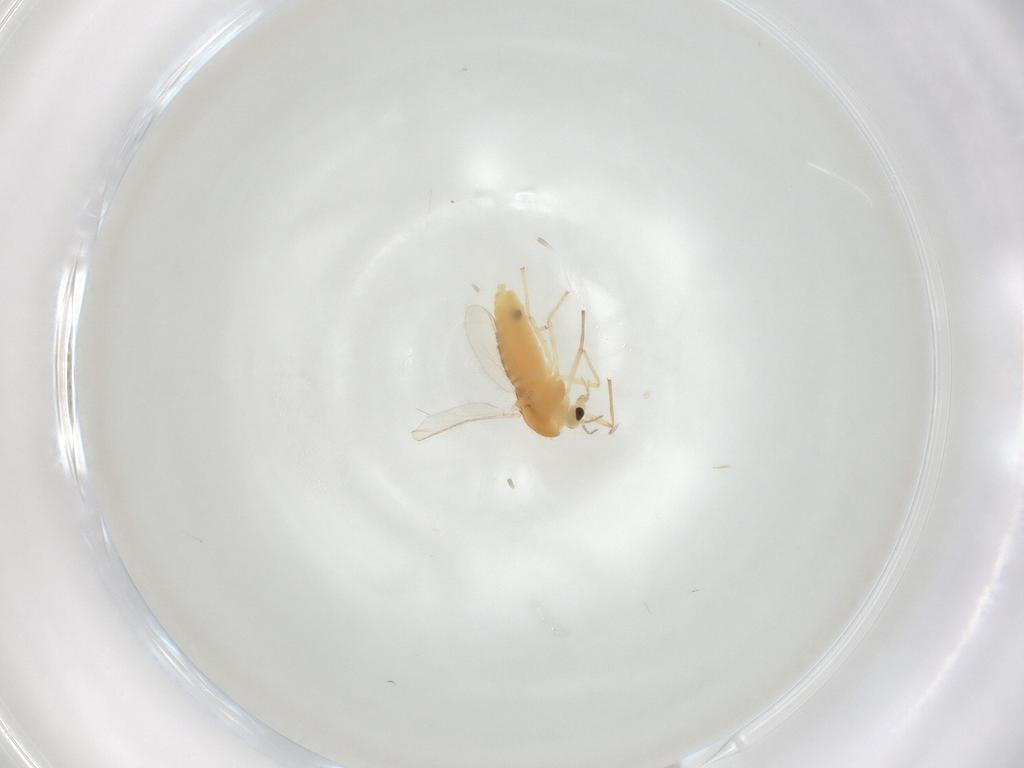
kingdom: Animalia
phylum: Arthropoda
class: Insecta
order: Diptera
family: Chironomidae
